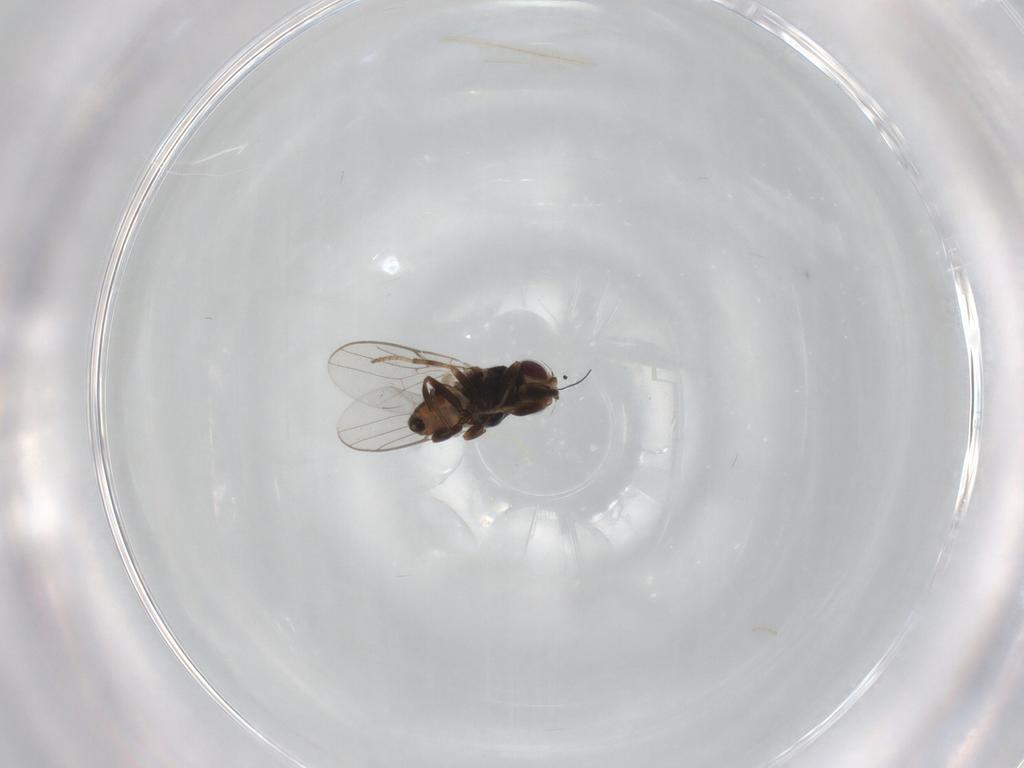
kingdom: Animalia
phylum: Arthropoda
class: Insecta
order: Diptera
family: Chloropidae
